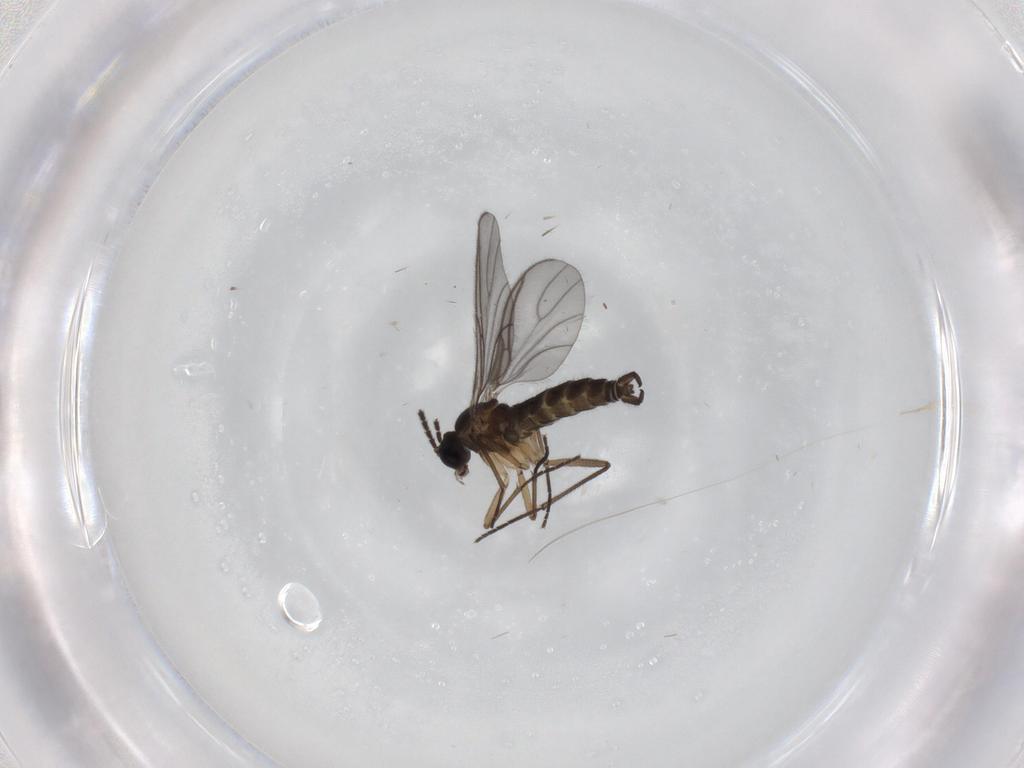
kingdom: Animalia
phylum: Arthropoda
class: Insecta
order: Diptera
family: Sciaridae
